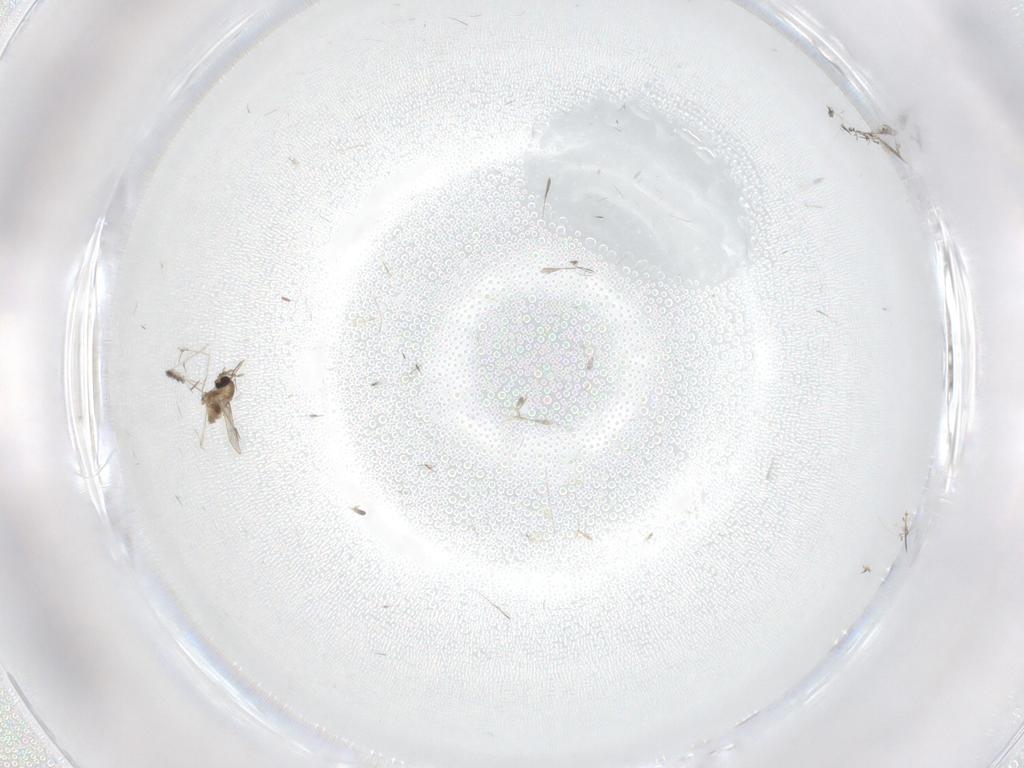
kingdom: Animalia
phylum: Arthropoda
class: Insecta
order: Diptera
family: Cecidomyiidae
